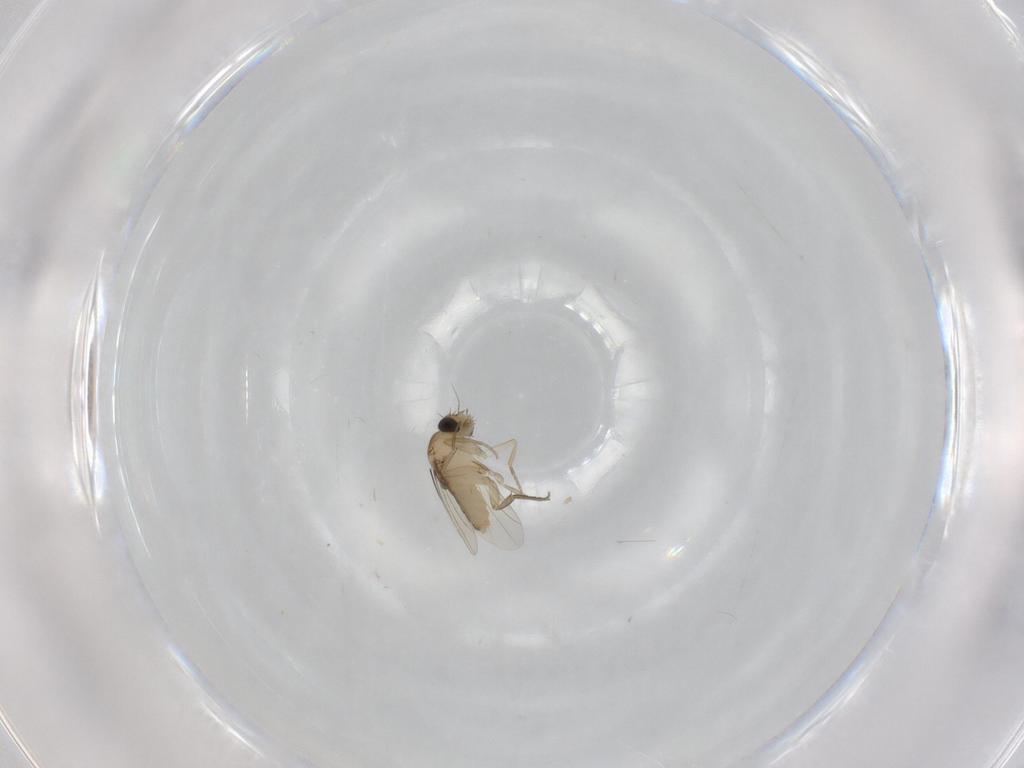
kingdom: Animalia
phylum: Arthropoda
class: Insecta
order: Diptera
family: Phoridae
